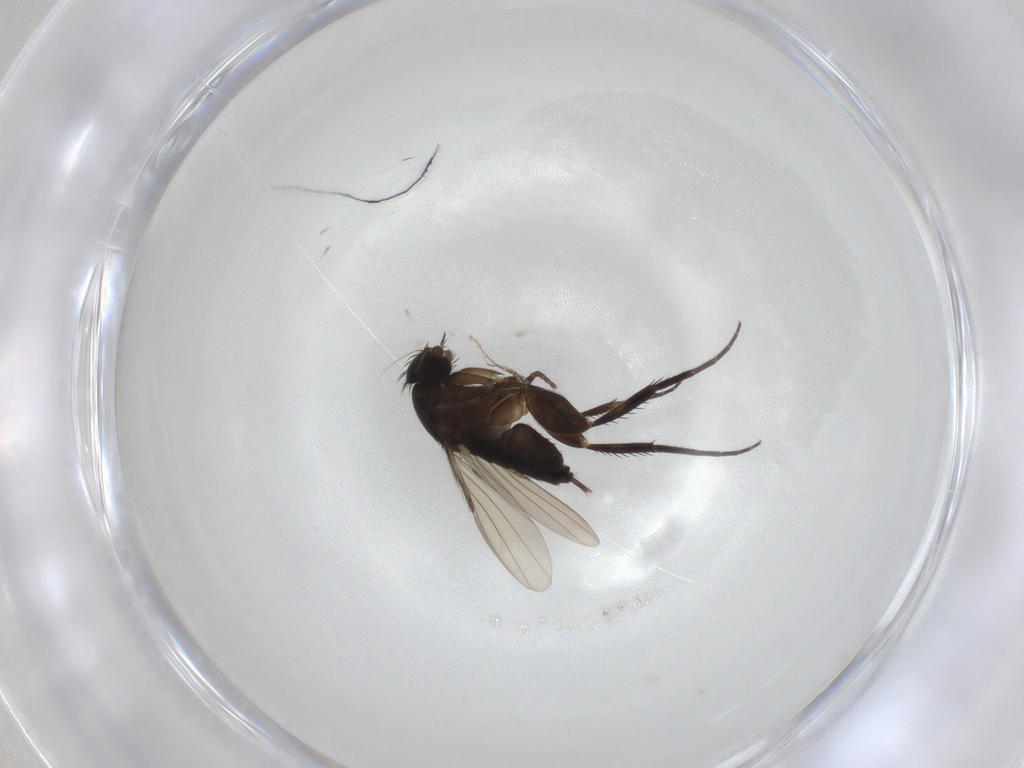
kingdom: Animalia
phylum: Arthropoda
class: Insecta
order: Diptera
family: Phoridae
